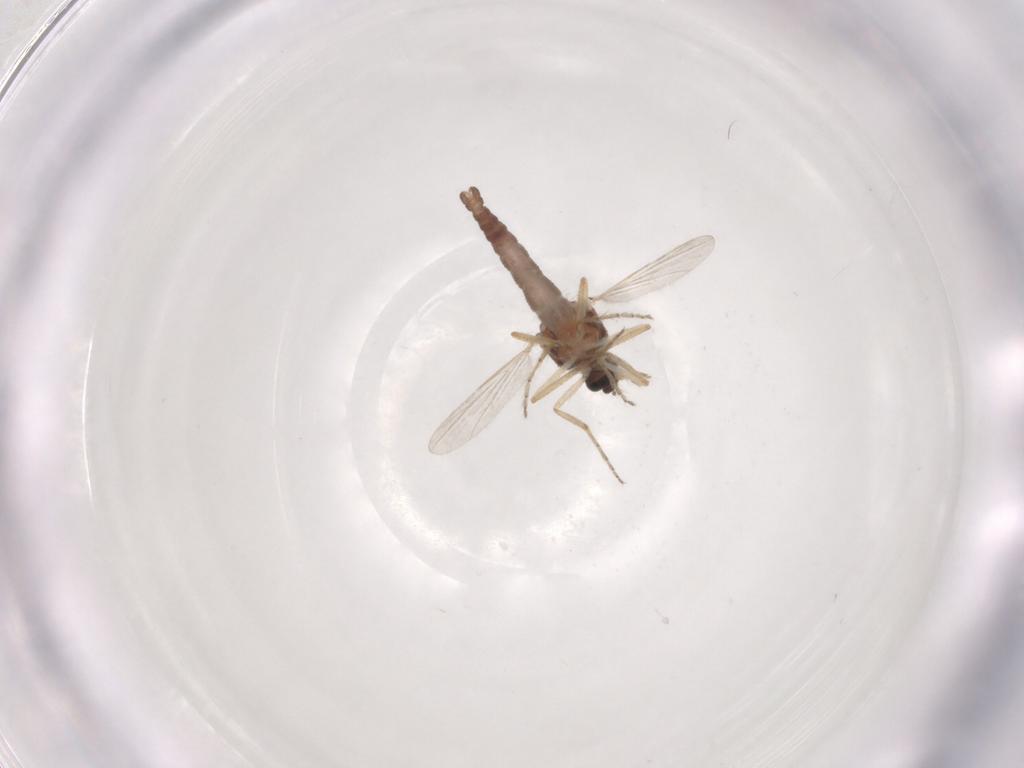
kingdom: Animalia
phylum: Arthropoda
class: Insecta
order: Diptera
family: Ceratopogonidae
